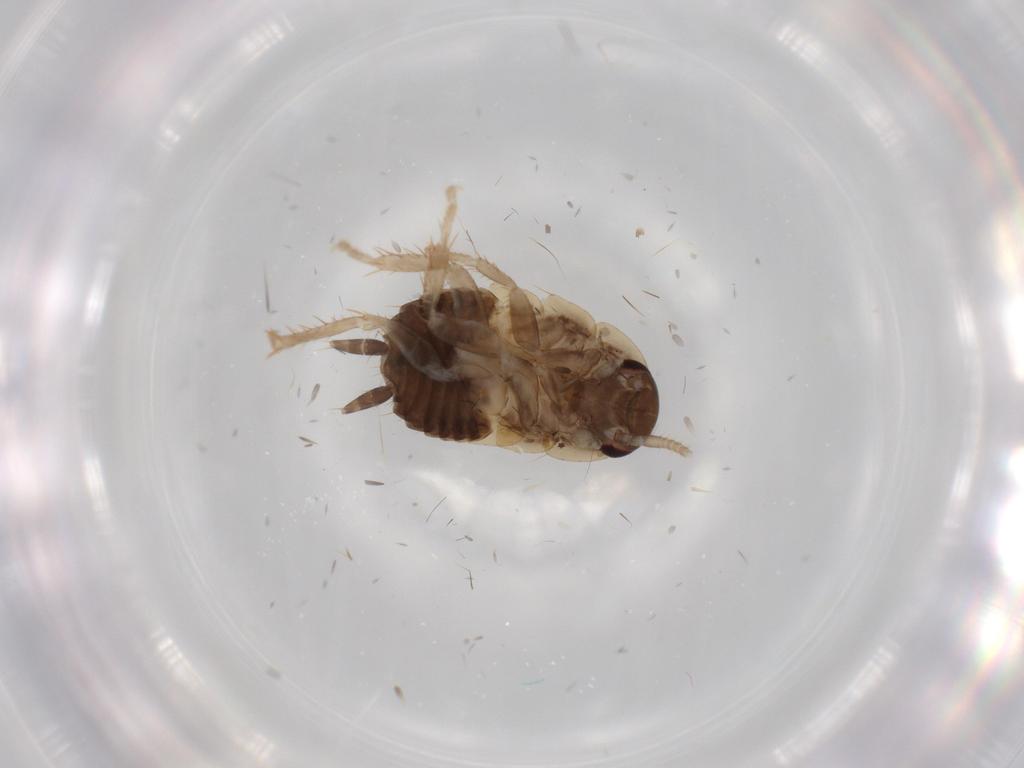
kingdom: Animalia
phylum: Arthropoda
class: Insecta
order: Blattodea
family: Ectobiidae
